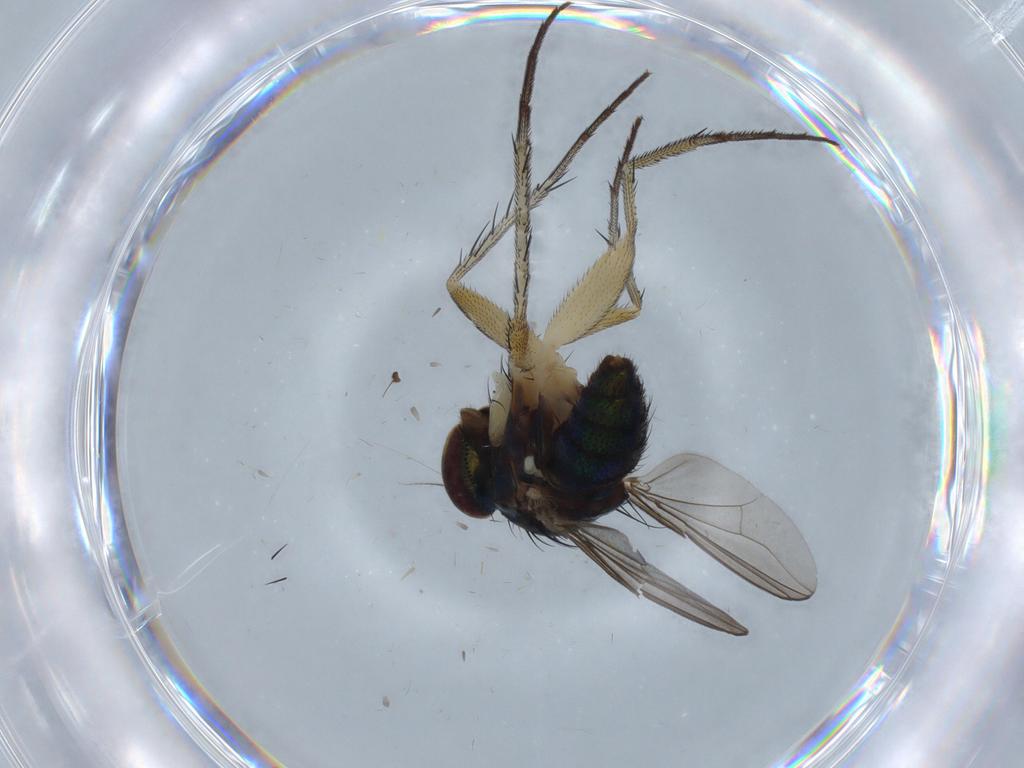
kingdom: Animalia
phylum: Arthropoda
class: Insecta
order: Diptera
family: Dolichopodidae
